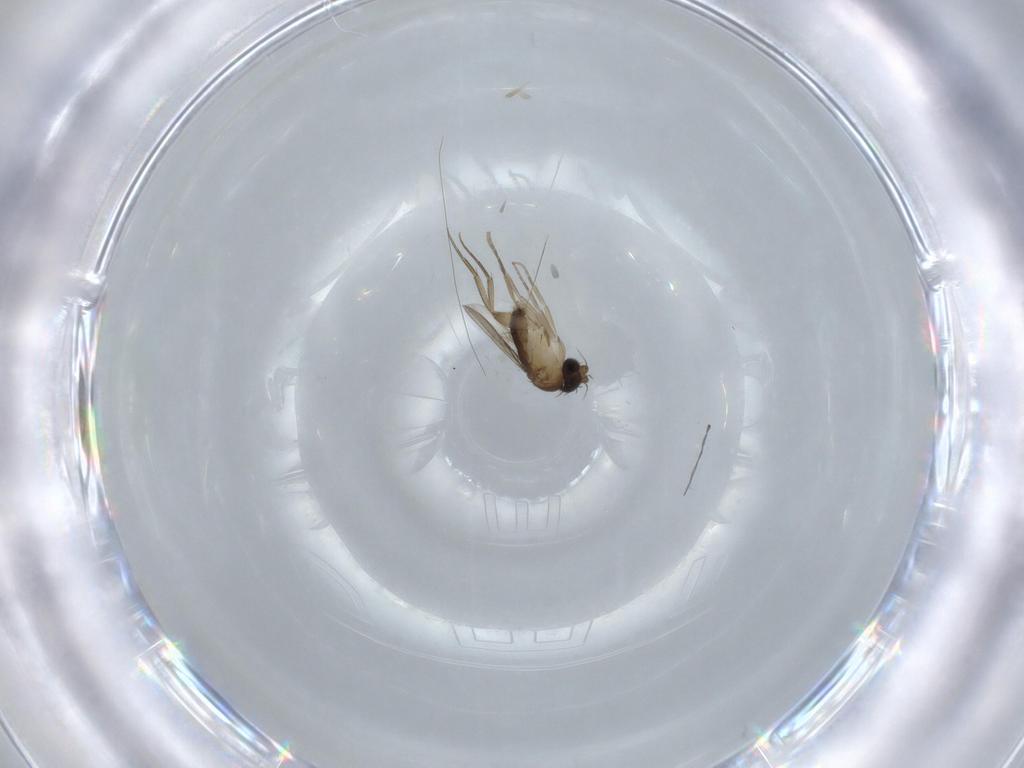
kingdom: Animalia
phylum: Arthropoda
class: Insecta
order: Diptera
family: Phoridae
